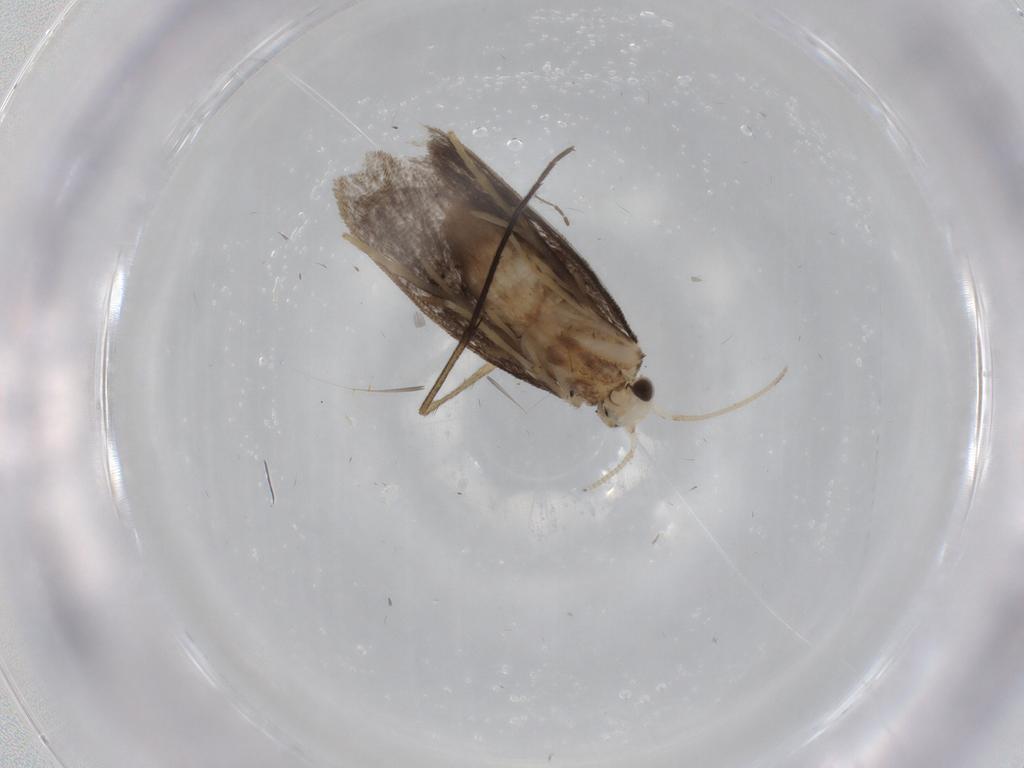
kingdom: Animalia
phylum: Arthropoda
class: Insecta
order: Lepidoptera
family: Dryadaulidae
